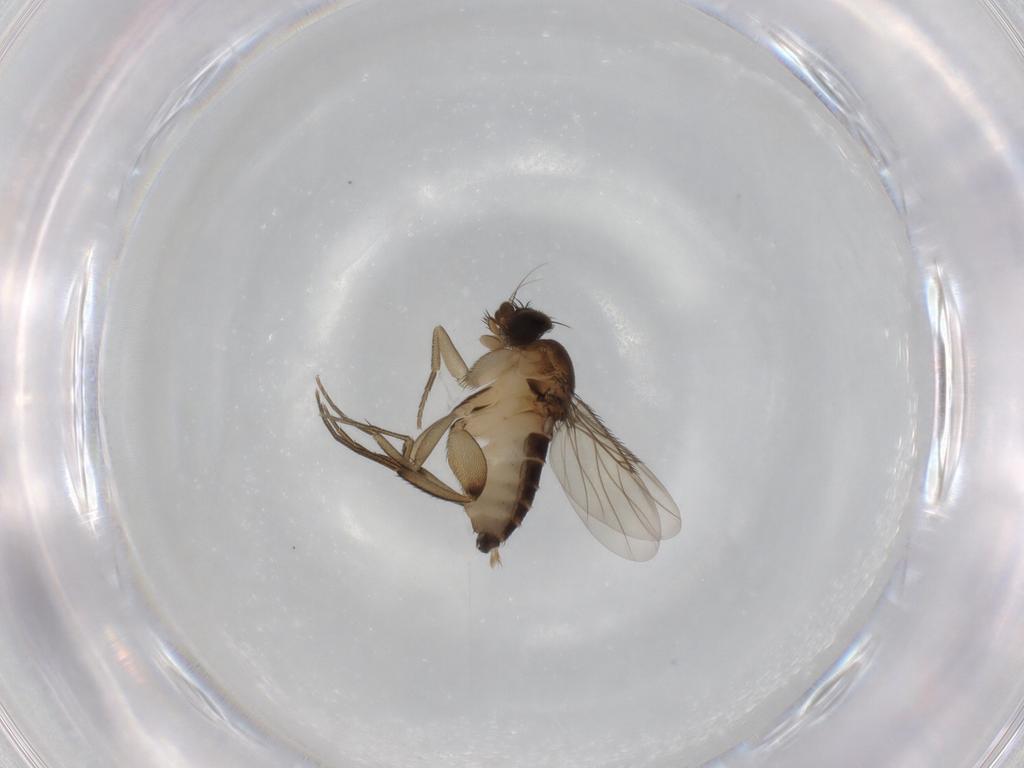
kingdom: Animalia
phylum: Arthropoda
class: Insecta
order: Diptera
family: Phoridae
